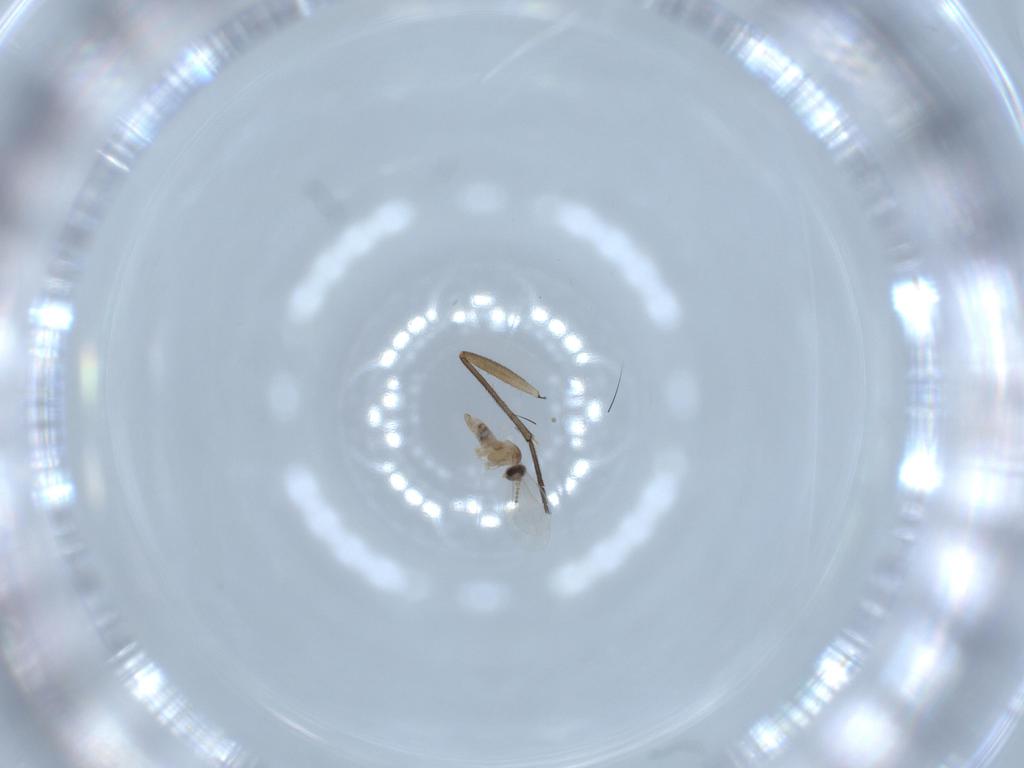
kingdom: Animalia
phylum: Arthropoda
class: Insecta
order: Diptera
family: Cecidomyiidae
